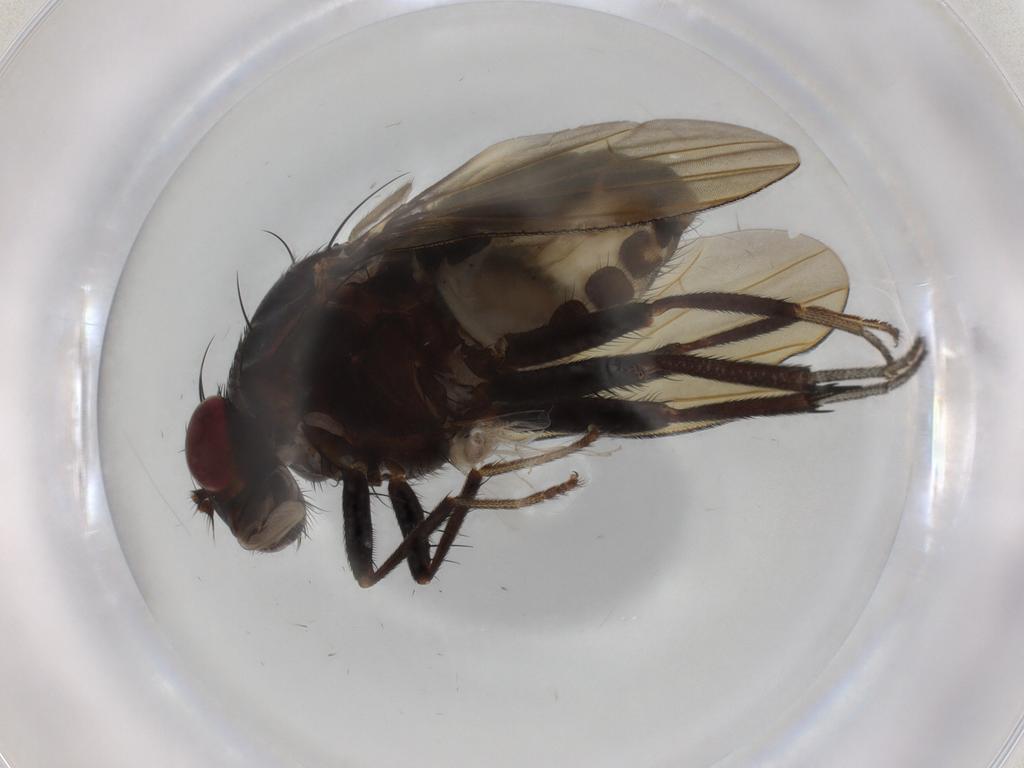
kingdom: Animalia
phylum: Arthropoda
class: Insecta
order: Diptera
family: Lauxaniidae
